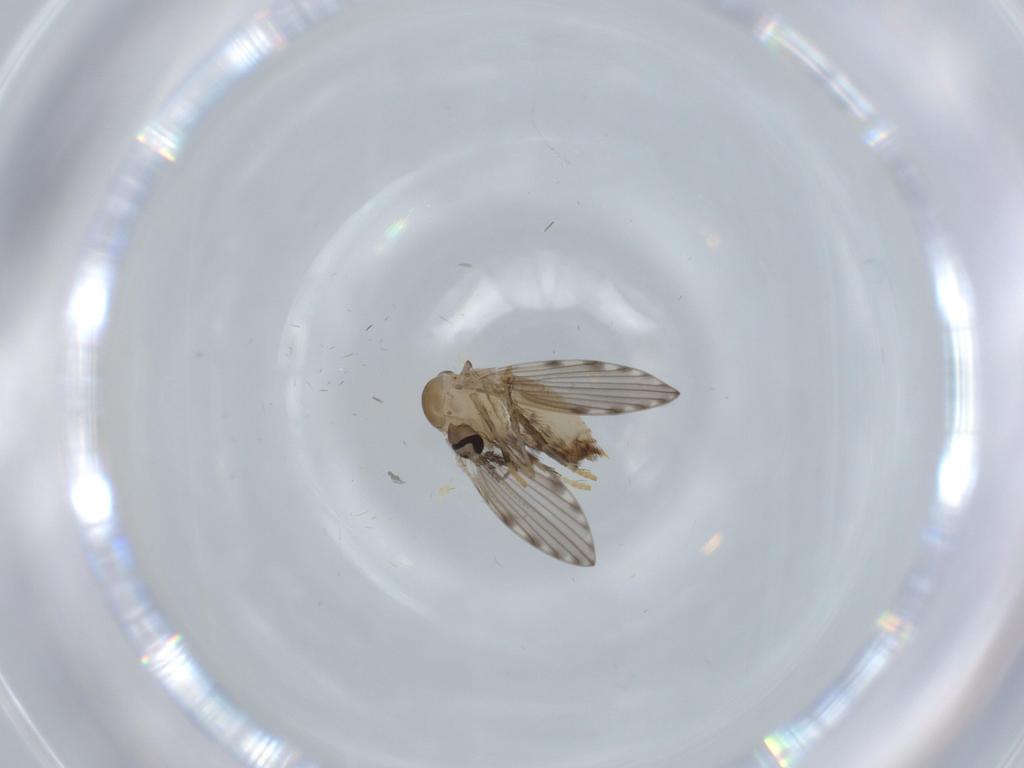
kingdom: Animalia
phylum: Arthropoda
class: Insecta
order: Diptera
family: Psychodidae
